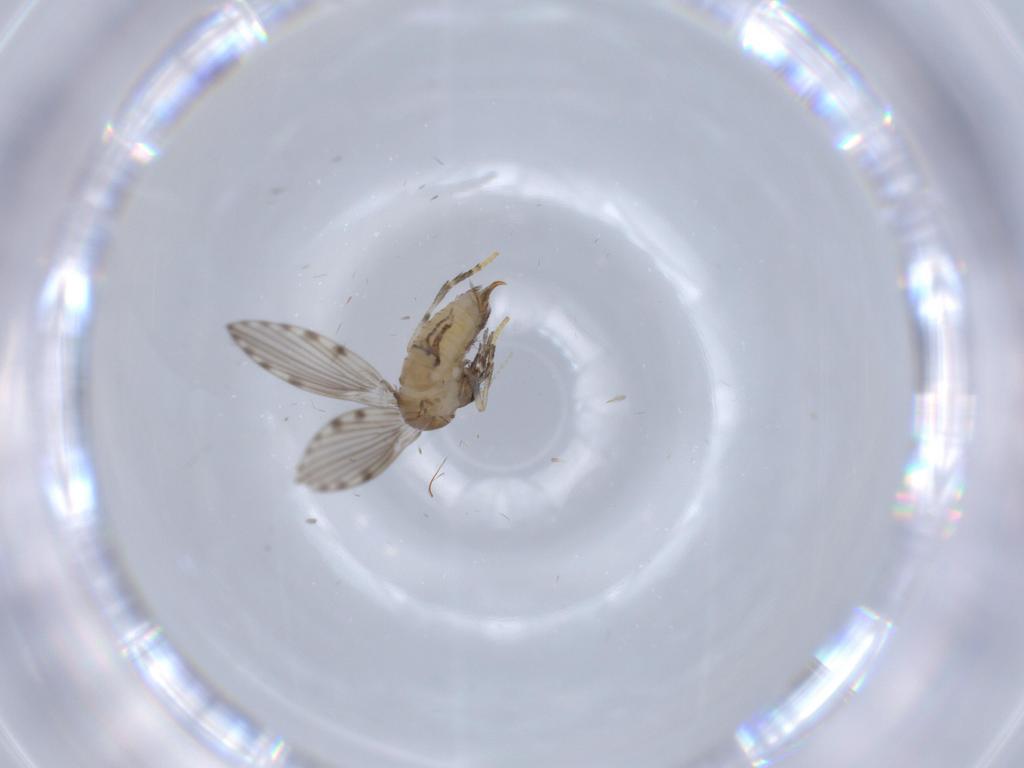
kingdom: Animalia
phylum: Arthropoda
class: Insecta
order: Diptera
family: Psychodidae
